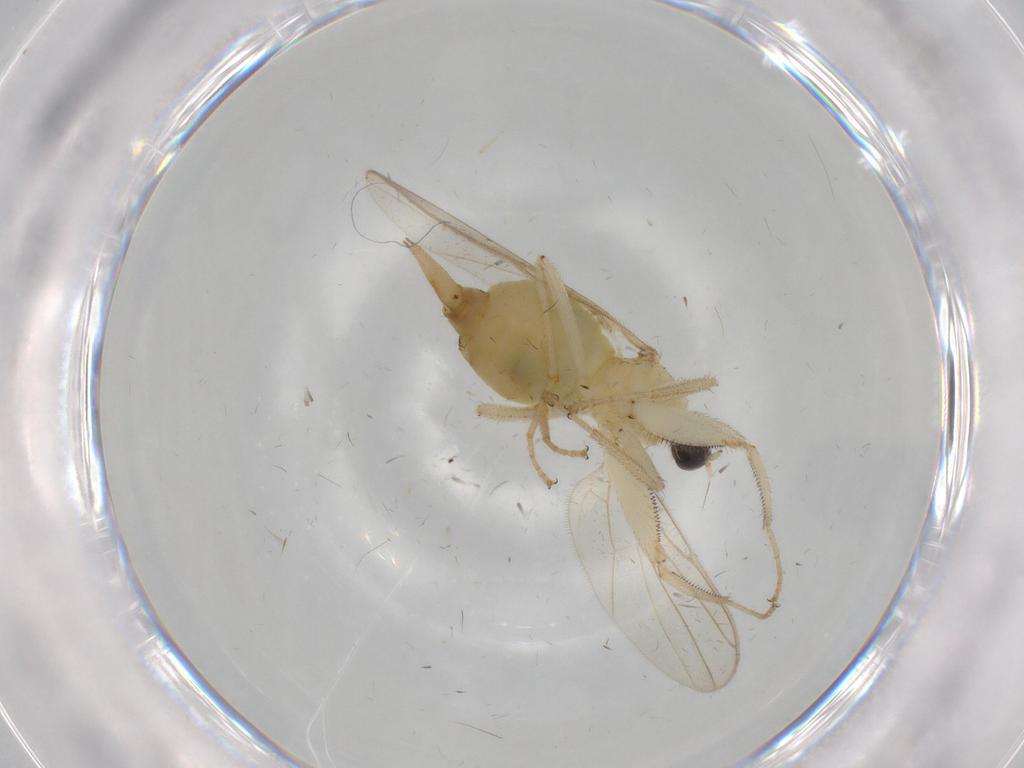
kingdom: Animalia
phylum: Arthropoda
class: Insecta
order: Diptera
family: Hybotidae
